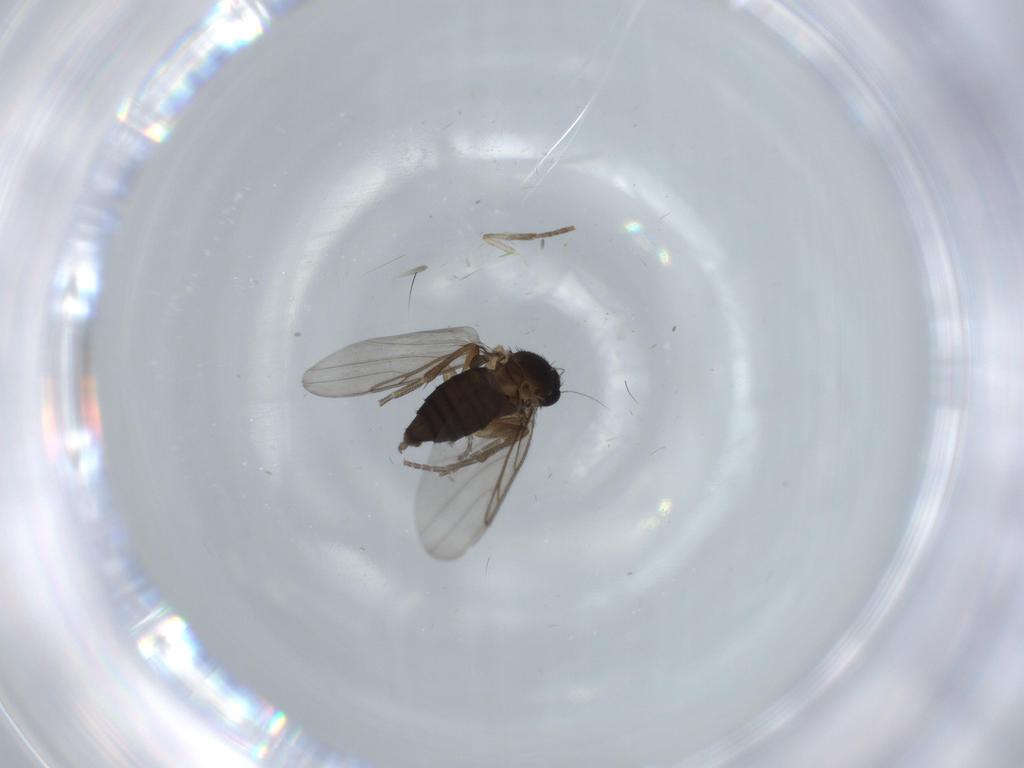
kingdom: Animalia
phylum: Arthropoda
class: Insecta
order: Diptera
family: Psychodidae
